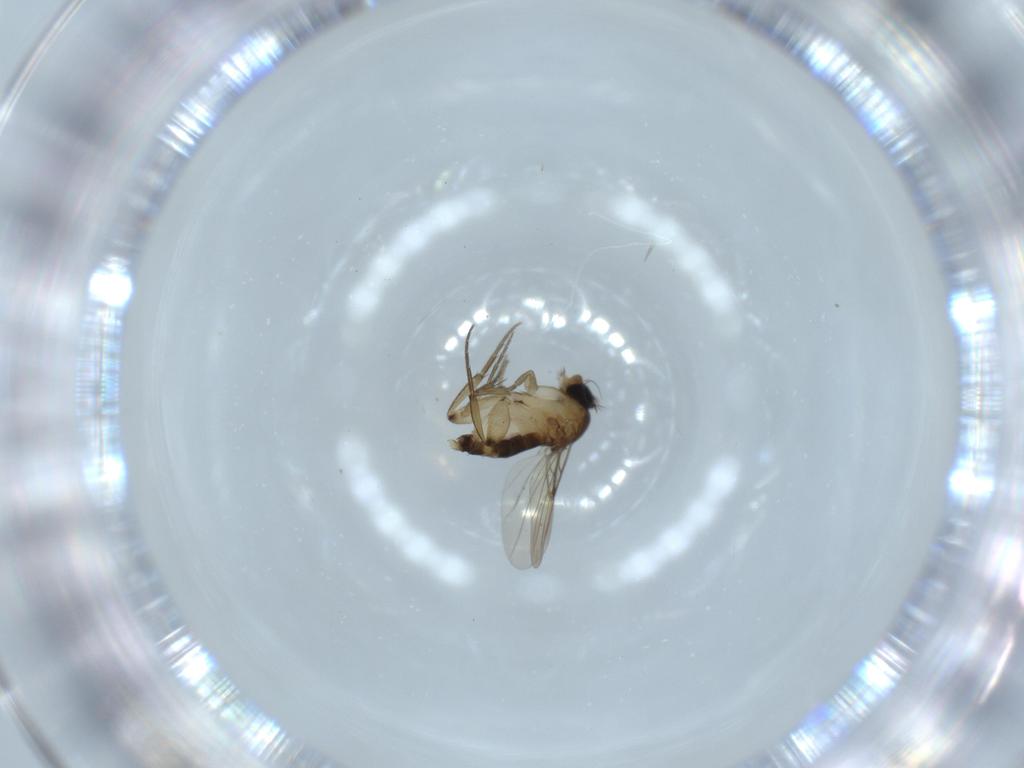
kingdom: Animalia
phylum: Arthropoda
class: Insecta
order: Diptera
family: Phoridae
